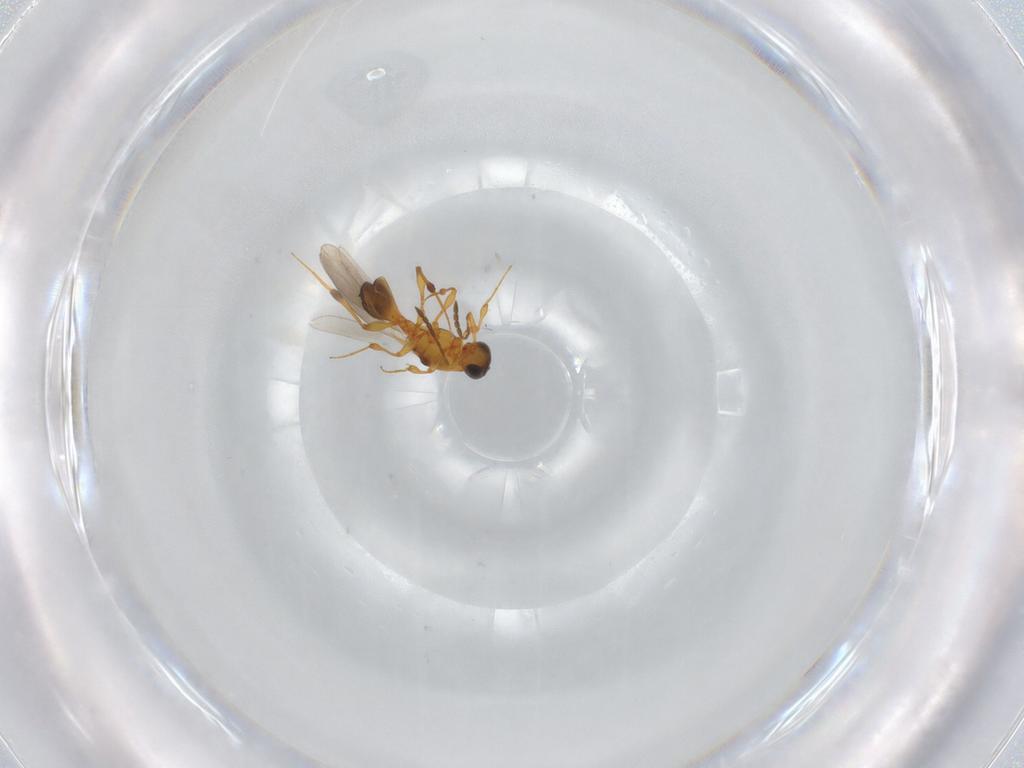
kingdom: Animalia
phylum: Arthropoda
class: Insecta
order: Hymenoptera
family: Platygastridae
